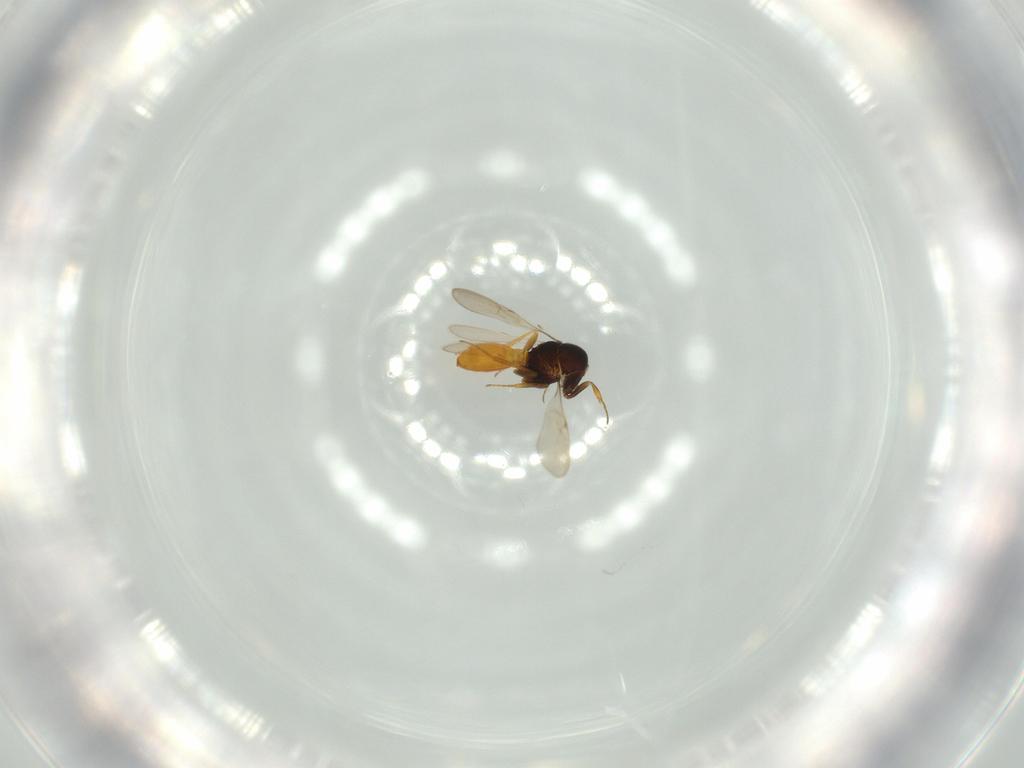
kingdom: Animalia
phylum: Arthropoda
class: Insecta
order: Hymenoptera
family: Scelionidae
